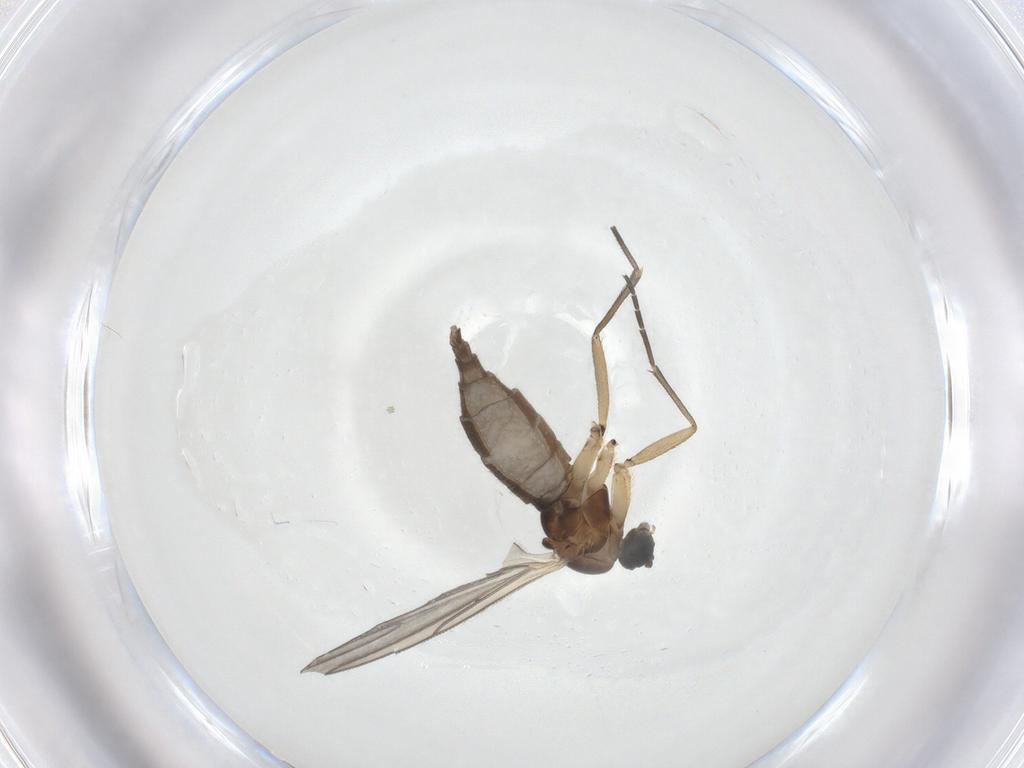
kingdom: Animalia
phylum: Arthropoda
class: Insecta
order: Diptera
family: Sciaridae
